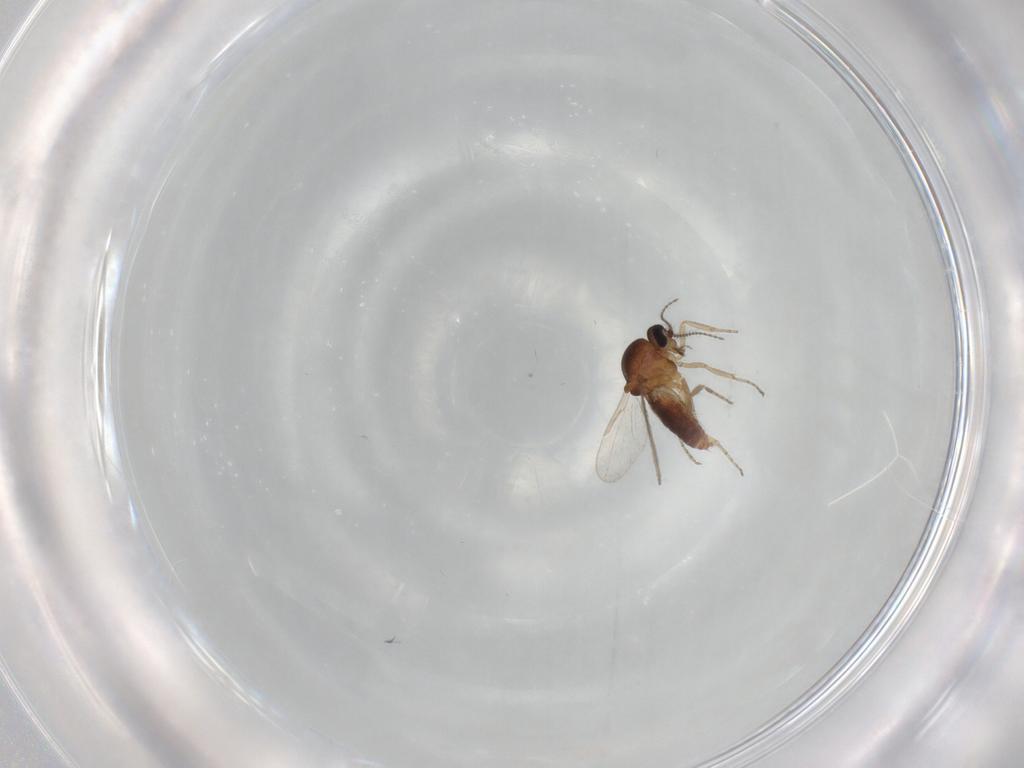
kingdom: Animalia
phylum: Arthropoda
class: Insecta
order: Diptera
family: Ceratopogonidae
